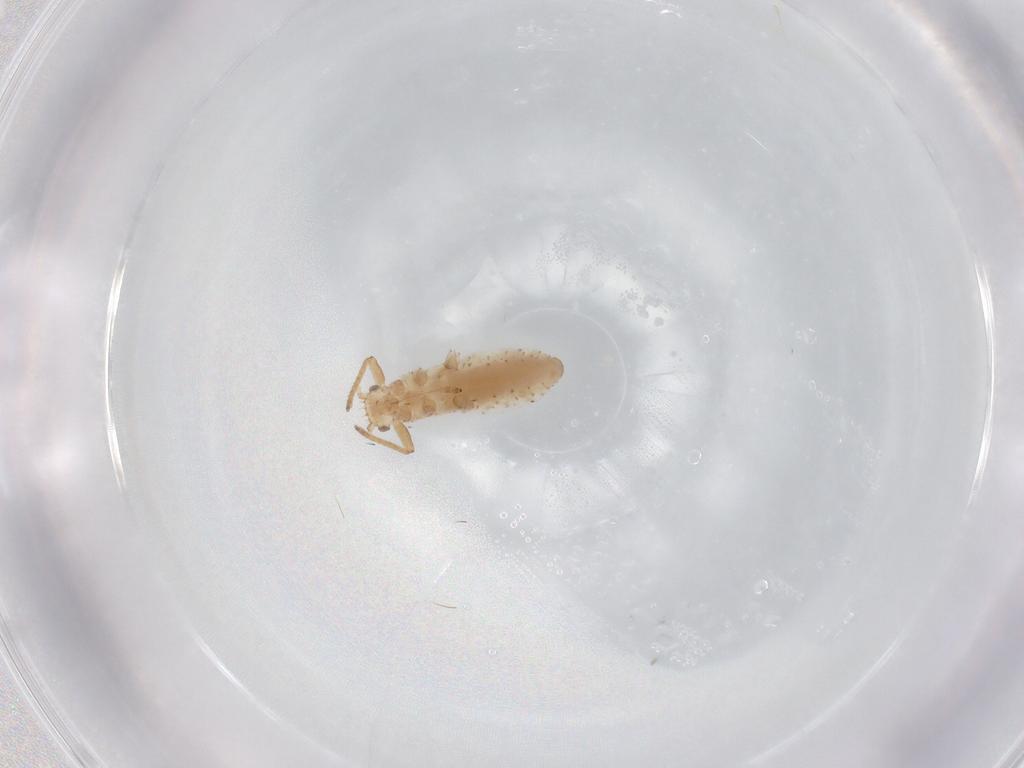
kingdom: Animalia
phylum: Arthropoda
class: Insecta
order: Hemiptera
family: Aphididae
